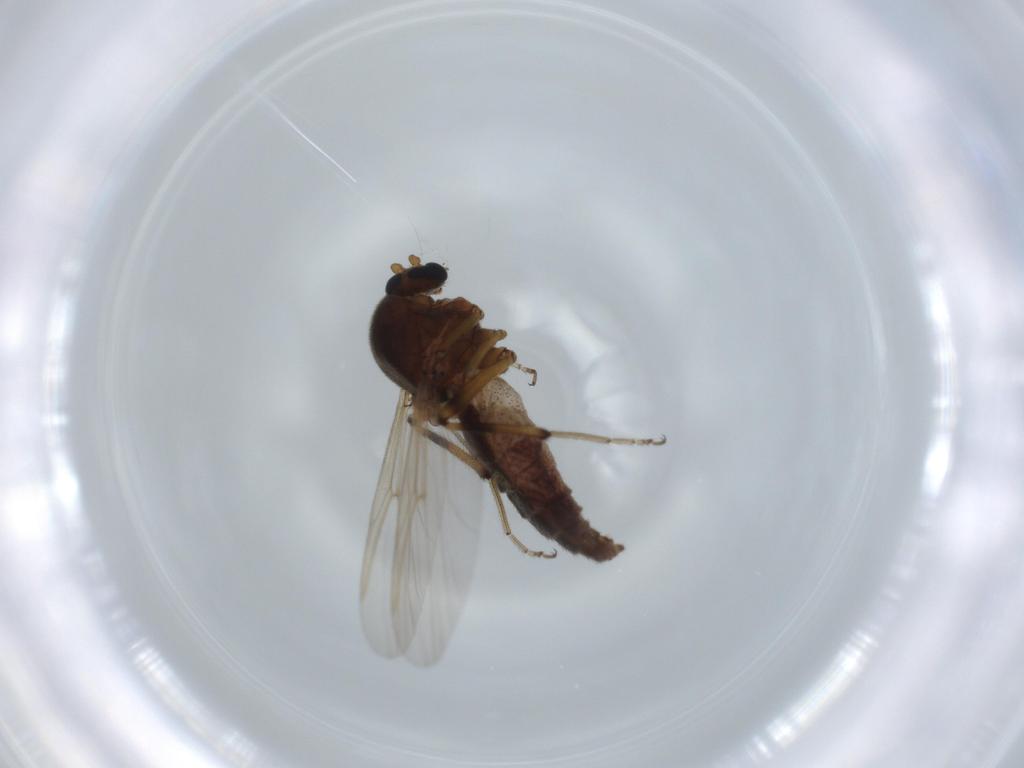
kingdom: Animalia
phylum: Arthropoda
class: Insecta
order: Diptera
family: Ceratopogonidae
